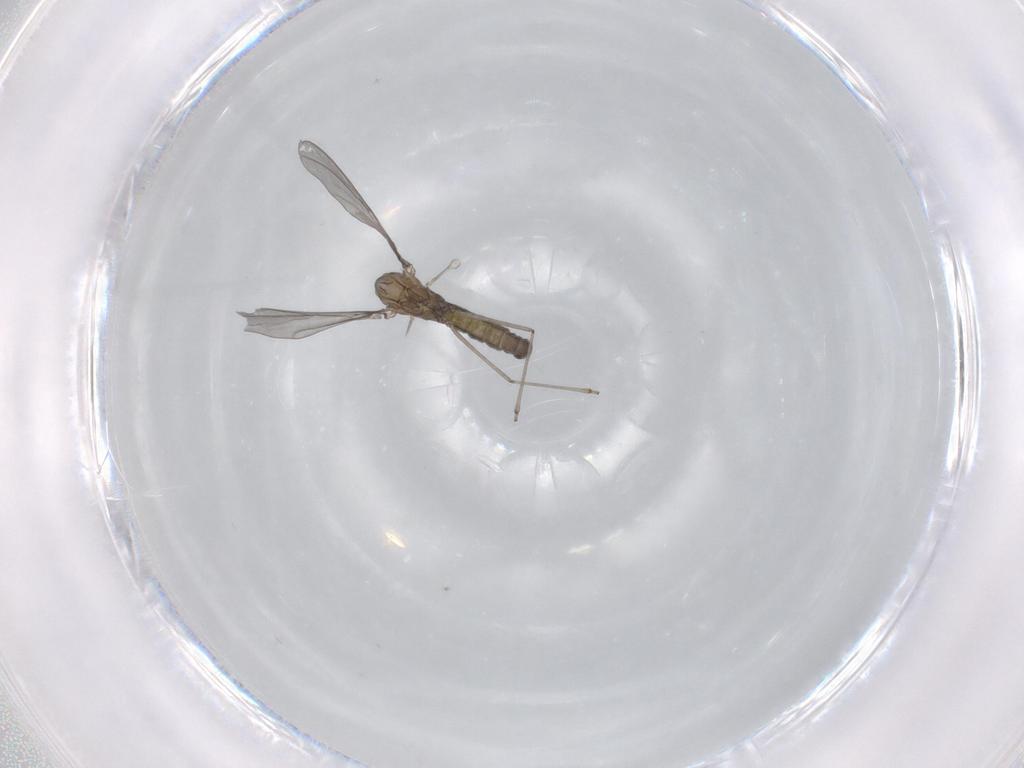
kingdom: Animalia
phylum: Arthropoda
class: Insecta
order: Diptera
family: Cecidomyiidae
